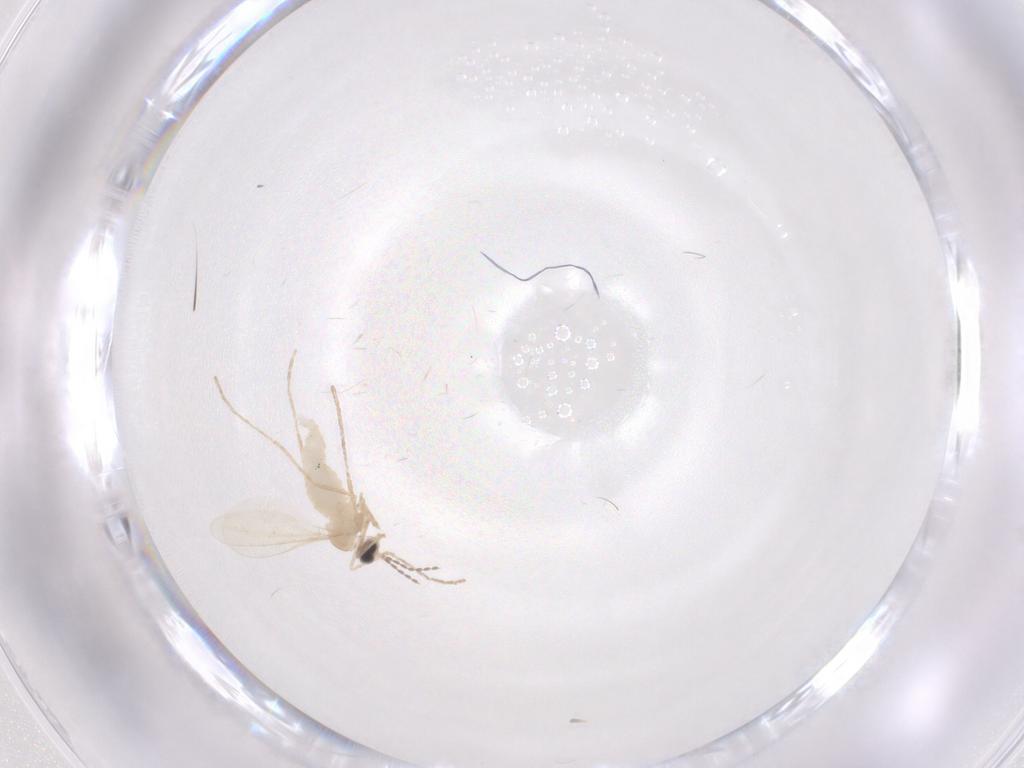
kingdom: Animalia
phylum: Arthropoda
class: Insecta
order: Diptera
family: Cecidomyiidae
